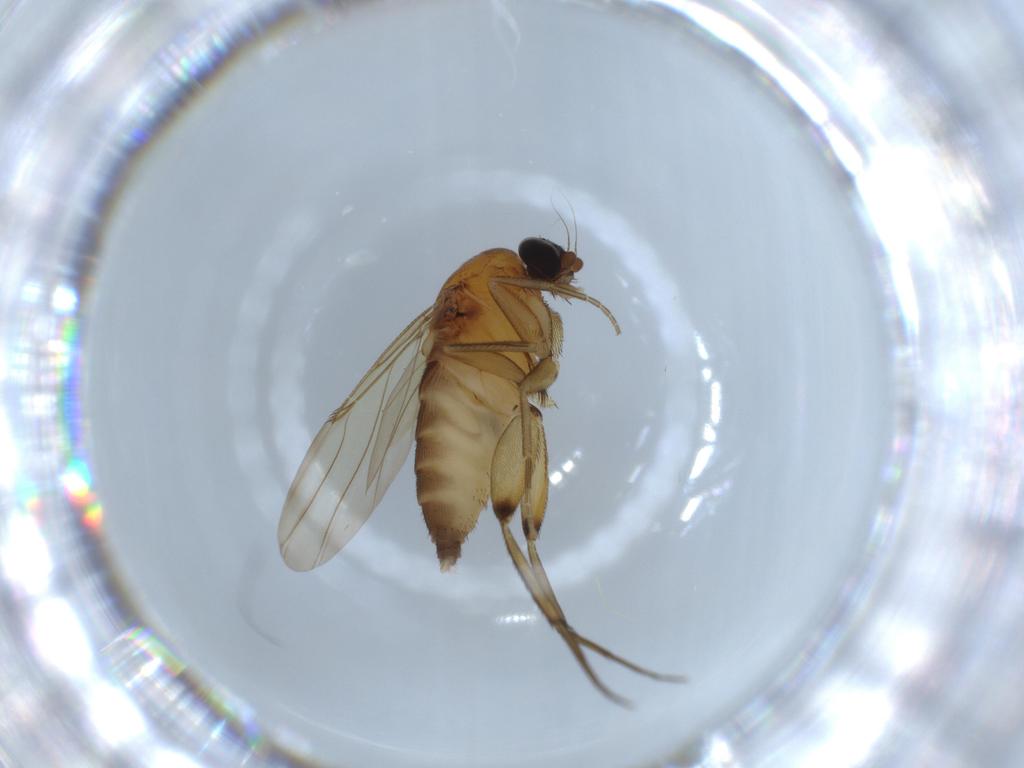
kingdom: Animalia
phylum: Arthropoda
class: Insecta
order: Diptera
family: Phoridae
